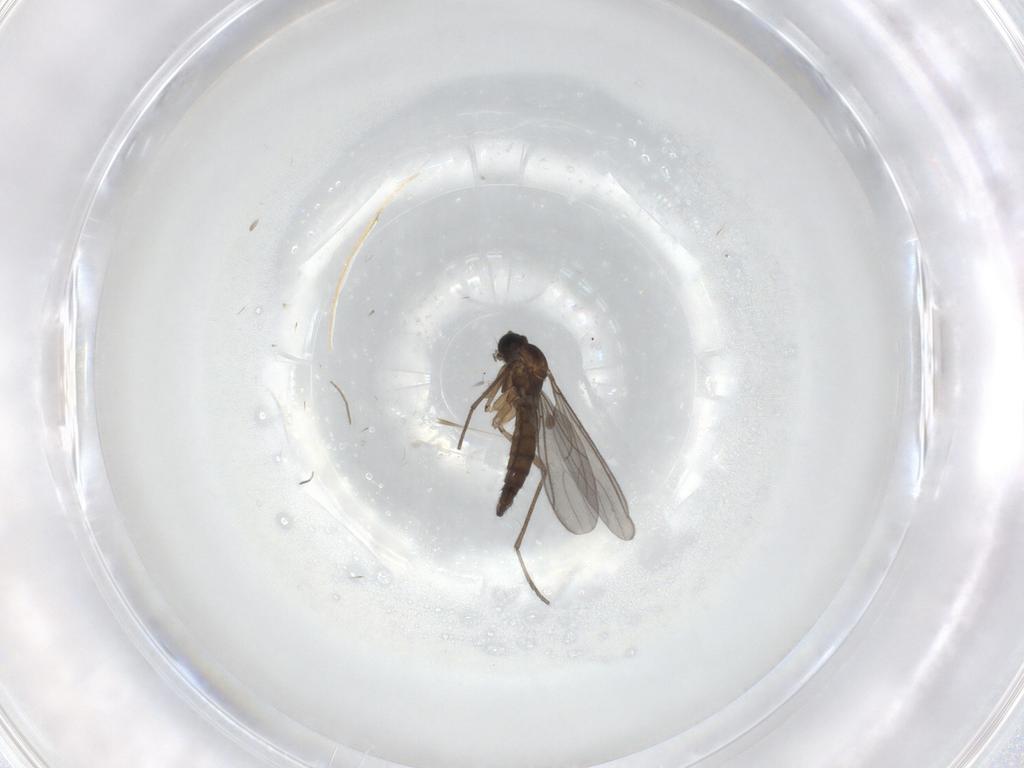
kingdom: Animalia
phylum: Arthropoda
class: Insecta
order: Diptera
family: Sciaridae
